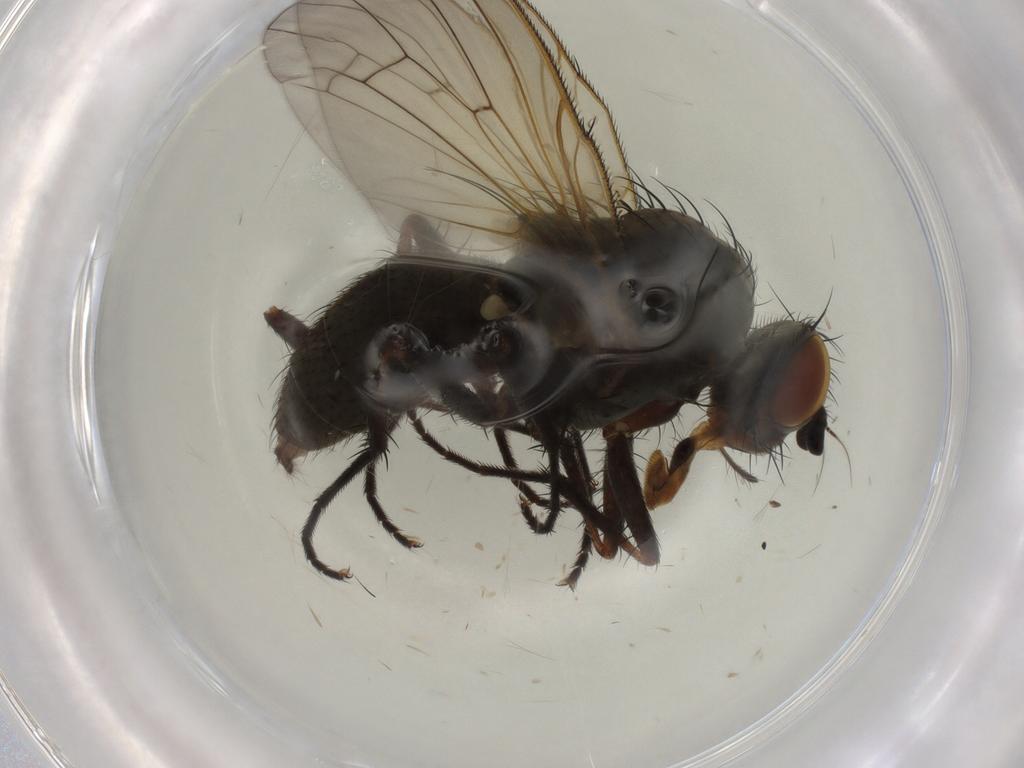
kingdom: Animalia
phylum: Arthropoda
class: Insecta
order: Diptera
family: Anthomyiidae
